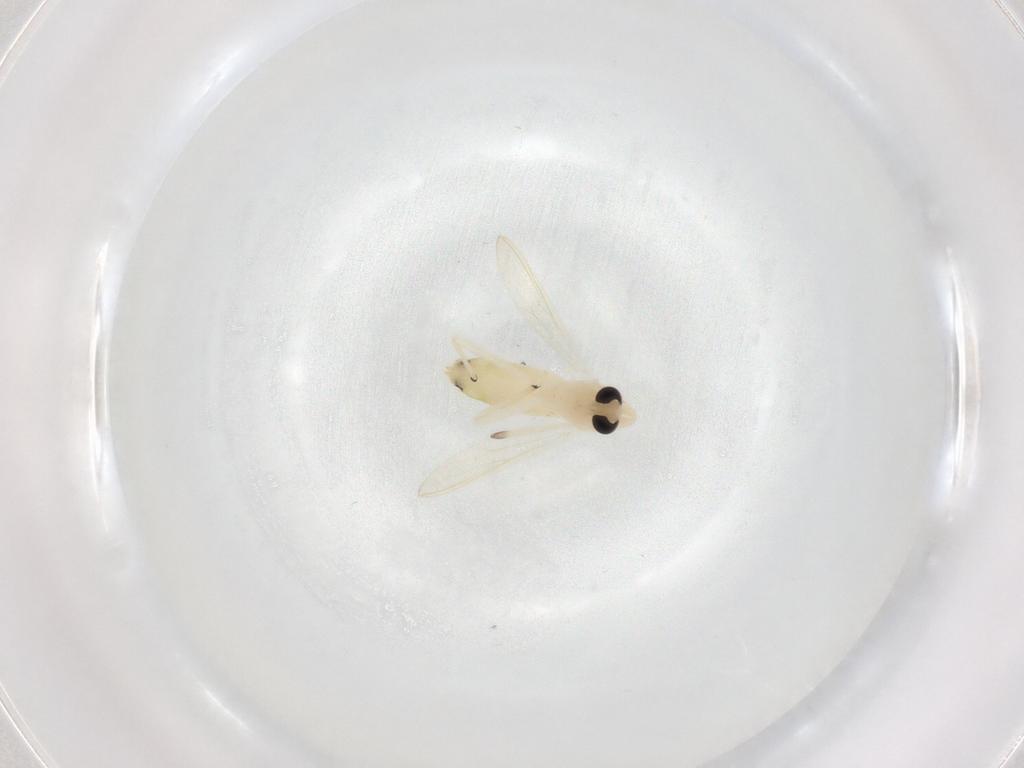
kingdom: Animalia
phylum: Arthropoda
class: Insecta
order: Diptera
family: Chironomidae
